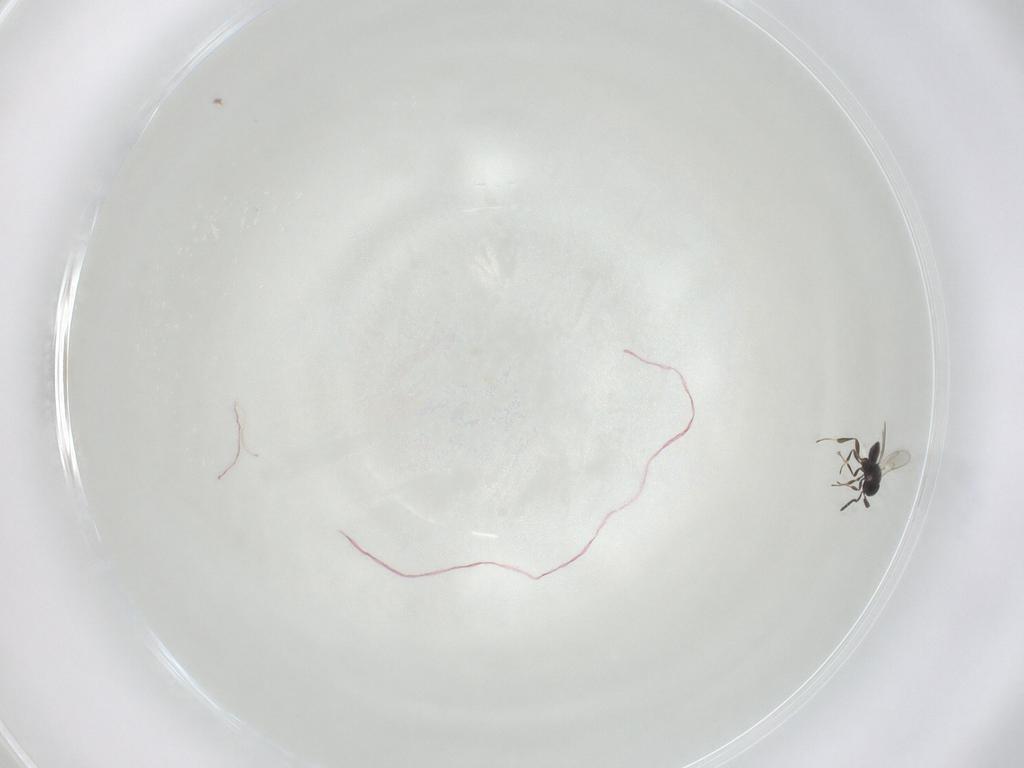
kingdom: Animalia
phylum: Arthropoda
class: Insecta
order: Hymenoptera
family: Scelionidae
